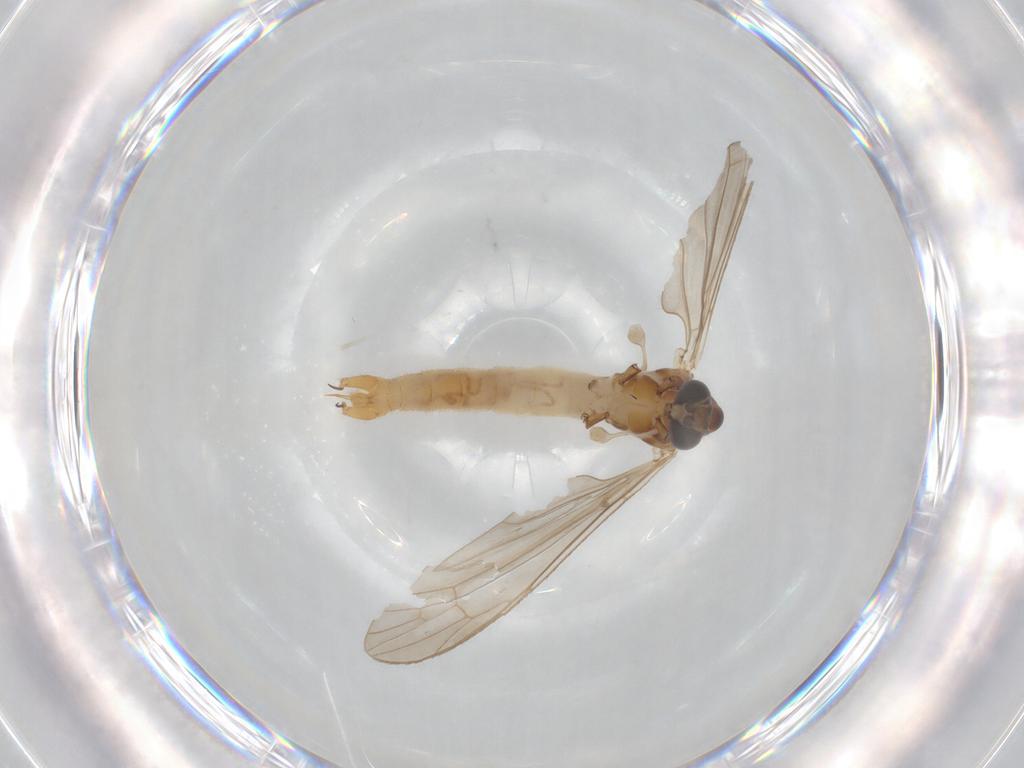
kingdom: Animalia
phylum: Arthropoda
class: Insecta
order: Diptera
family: Limoniidae
